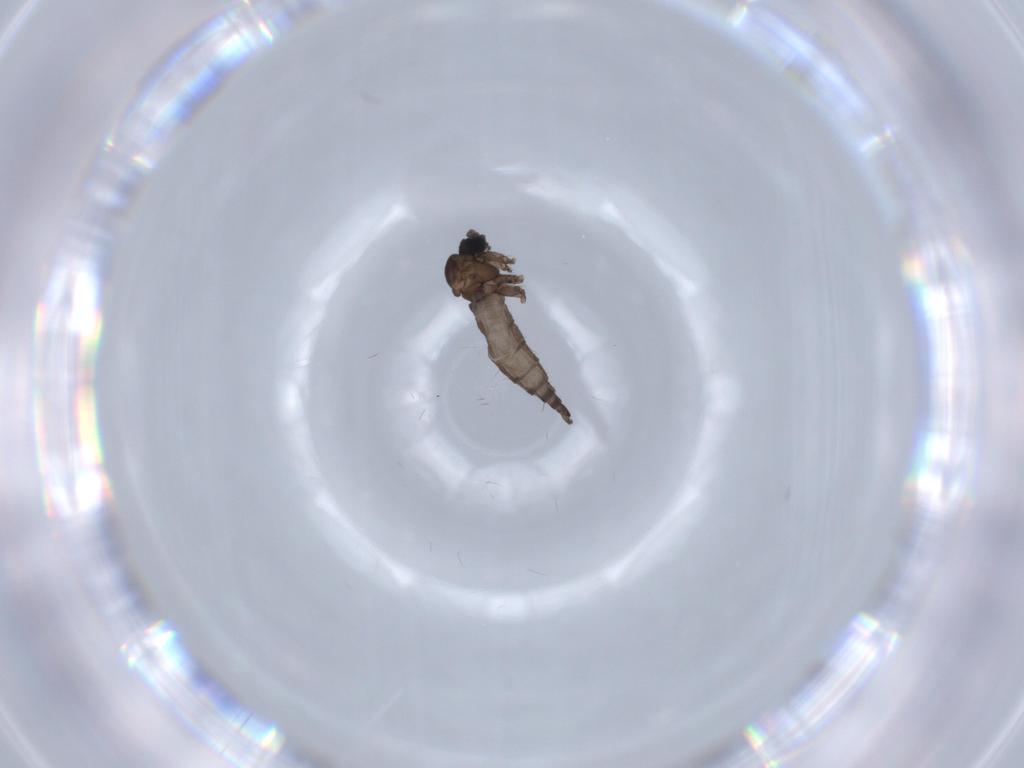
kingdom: Animalia
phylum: Arthropoda
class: Insecta
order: Diptera
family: Sciaridae
